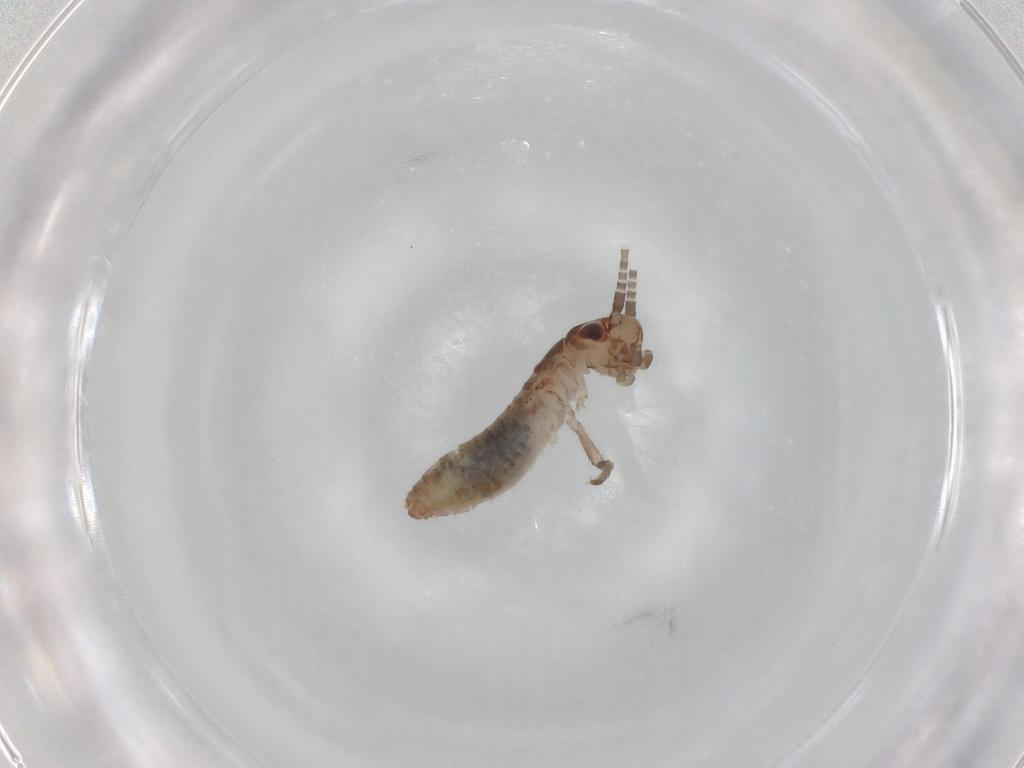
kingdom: Animalia
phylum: Arthropoda
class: Insecta
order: Orthoptera
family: Mogoplistidae
